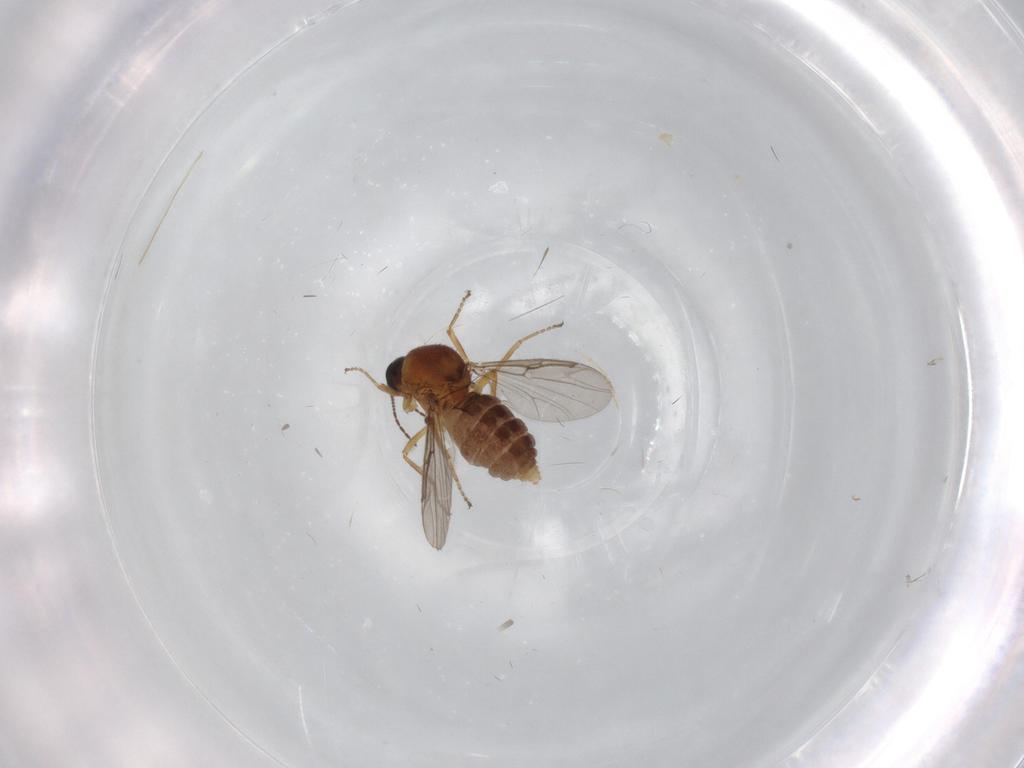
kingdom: Animalia
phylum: Arthropoda
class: Insecta
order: Diptera
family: Ceratopogonidae
